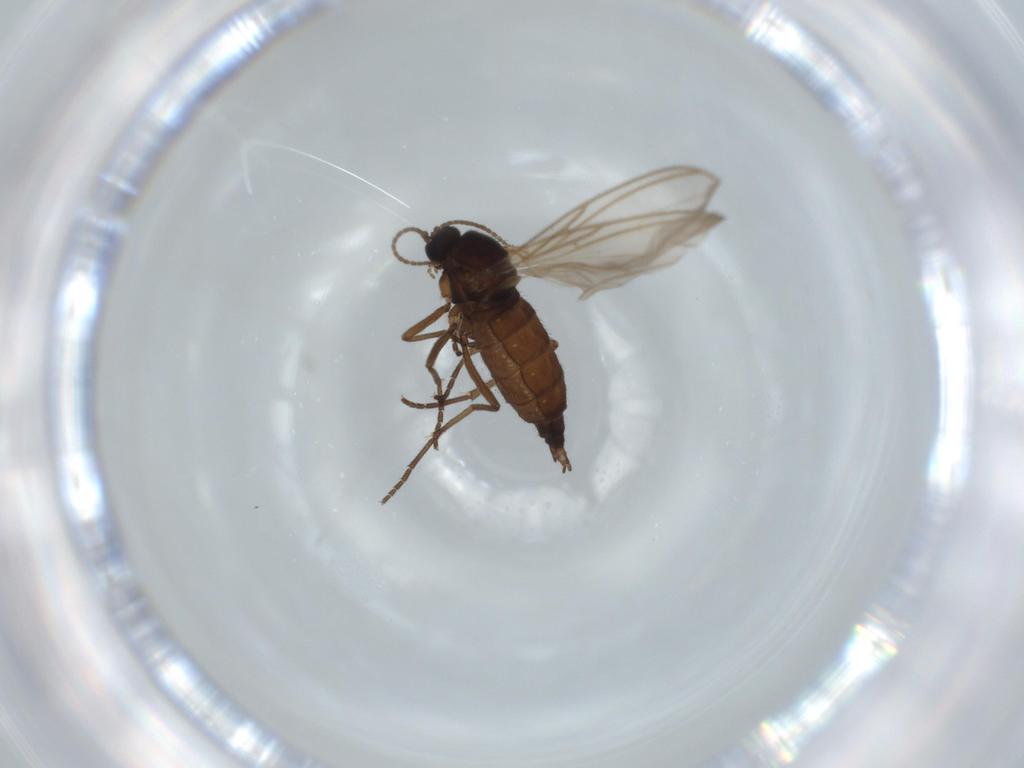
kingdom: Animalia
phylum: Arthropoda
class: Insecta
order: Diptera
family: Sciaridae
